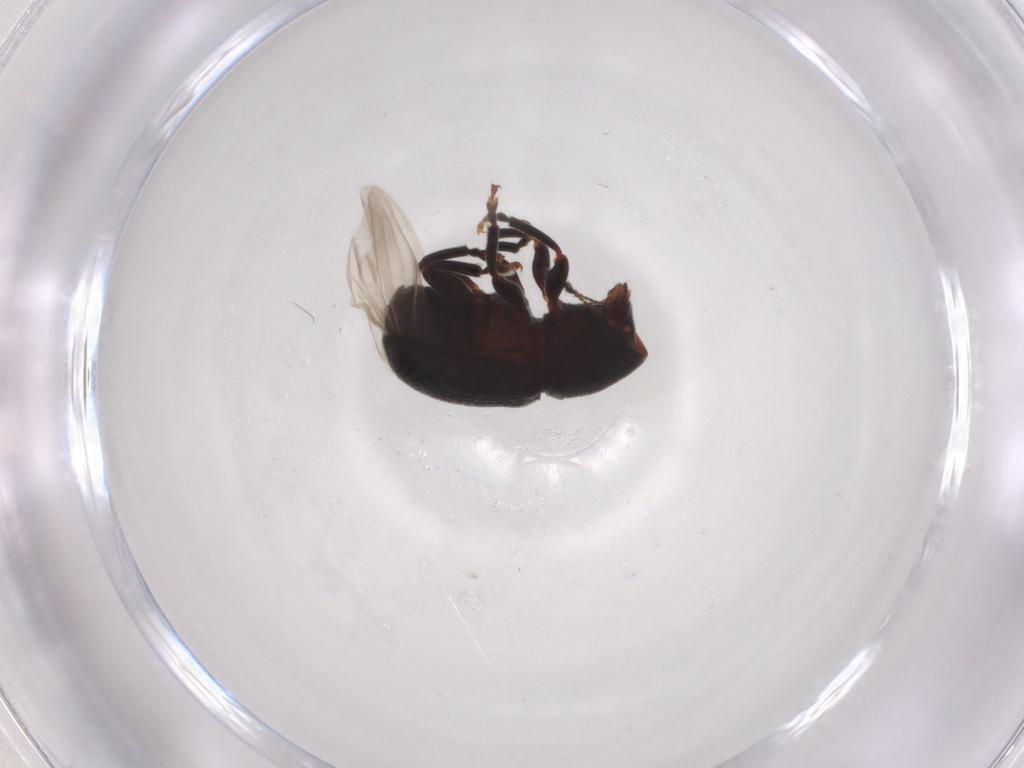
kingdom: Animalia
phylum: Arthropoda
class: Insecta
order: Coleoptera
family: Anthribidae
